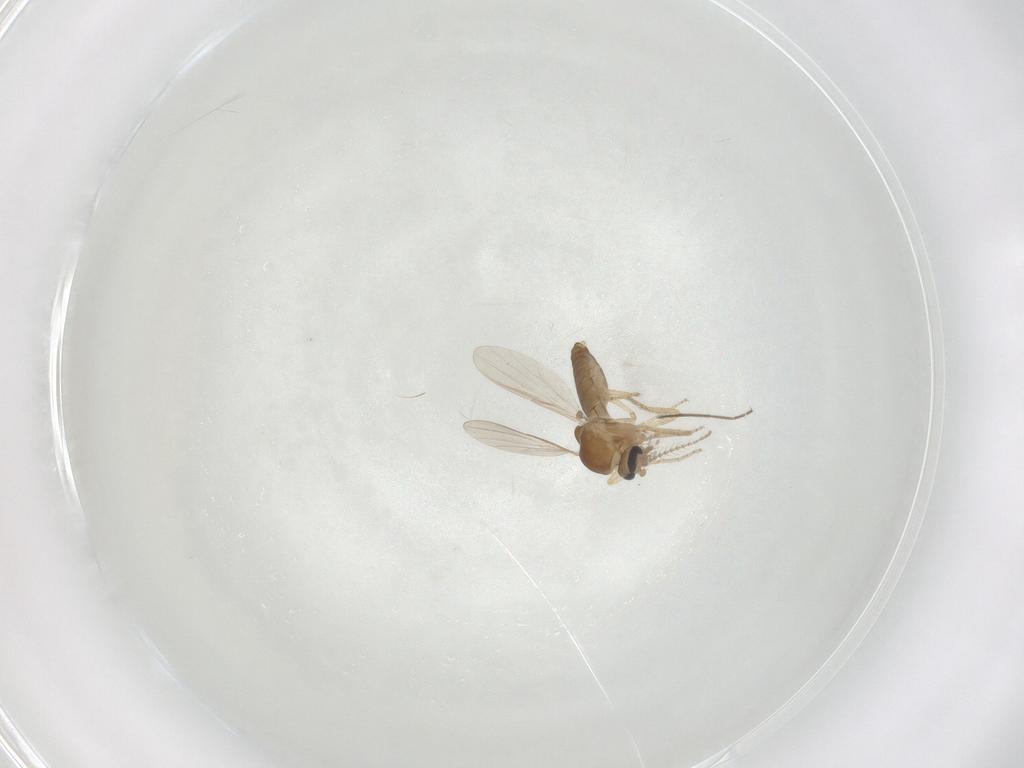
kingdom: Animalia
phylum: Arthropoda
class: Insecta
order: Diptera
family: Ceratopogonidae
